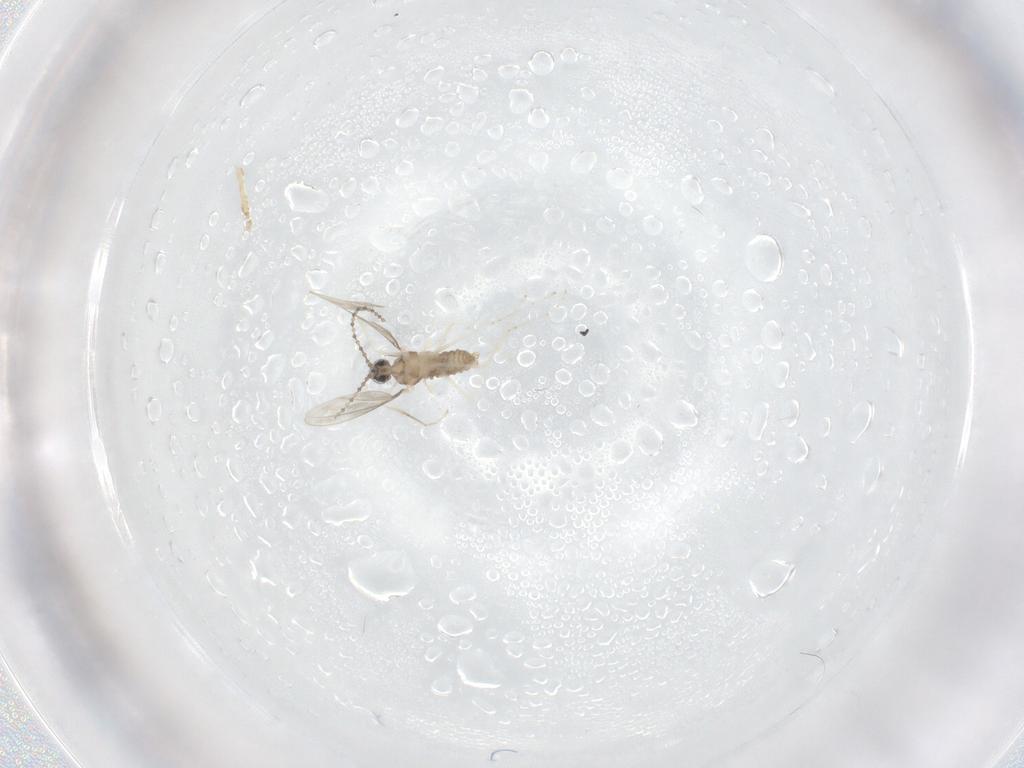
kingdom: Animalia
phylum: Arthropoda
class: Insecta
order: Diptera
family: Cecidomyiidae
